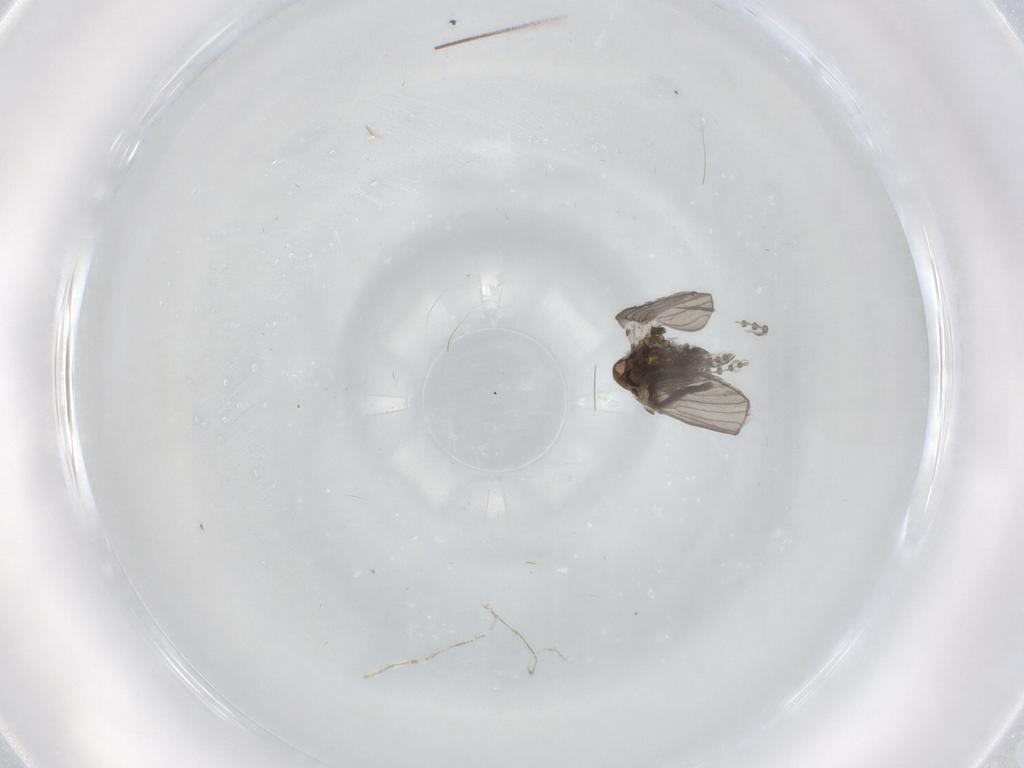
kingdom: Animalia
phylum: Arthropoda
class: Insecta
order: Diptera
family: Psychodidae
